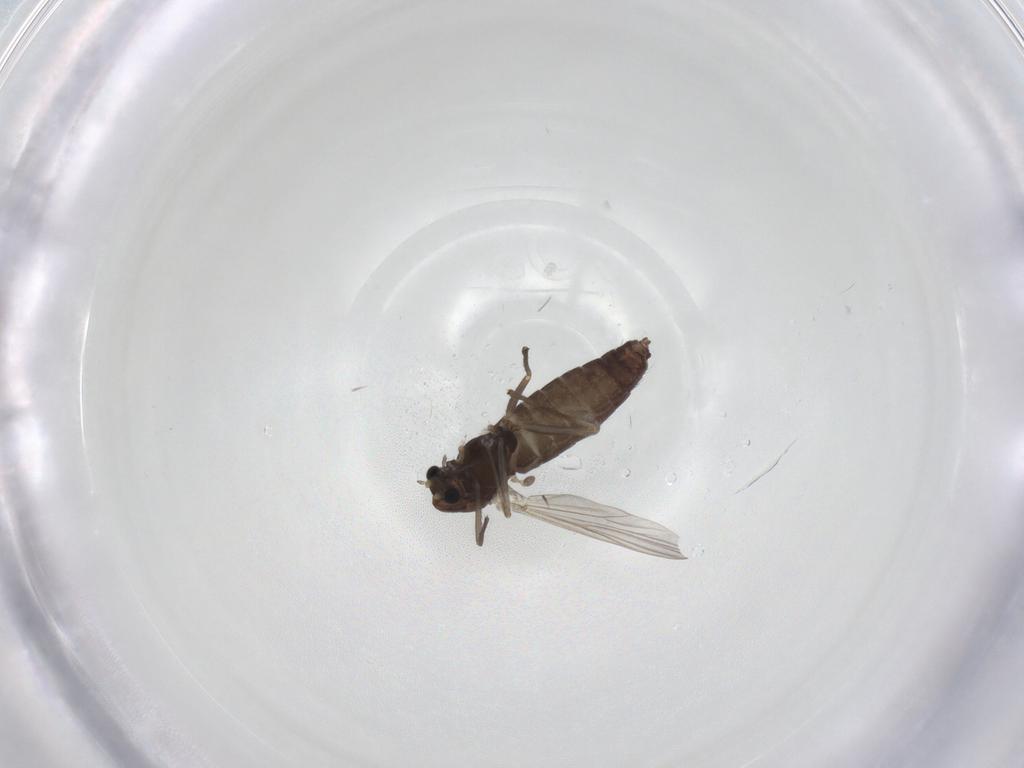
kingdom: Animalia
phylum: Arthropoda
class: Insecta
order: Diptera
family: Chironomidae
